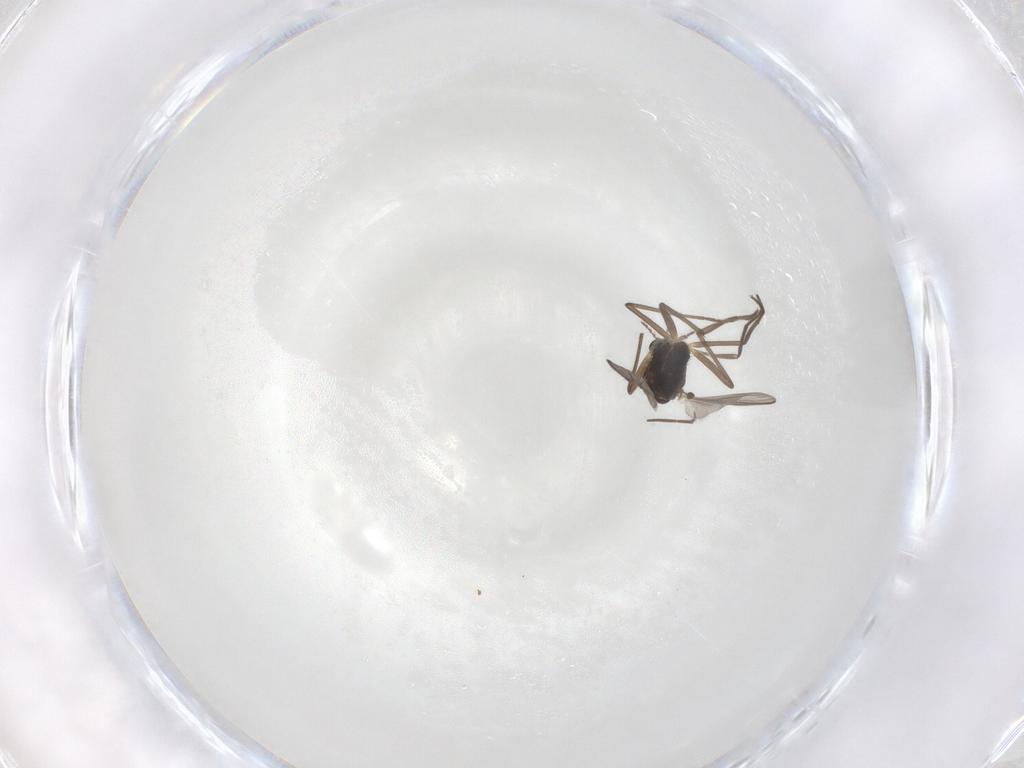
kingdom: Animalia
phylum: Arthropoda
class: Insecta
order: Diptera
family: Chironomidae
